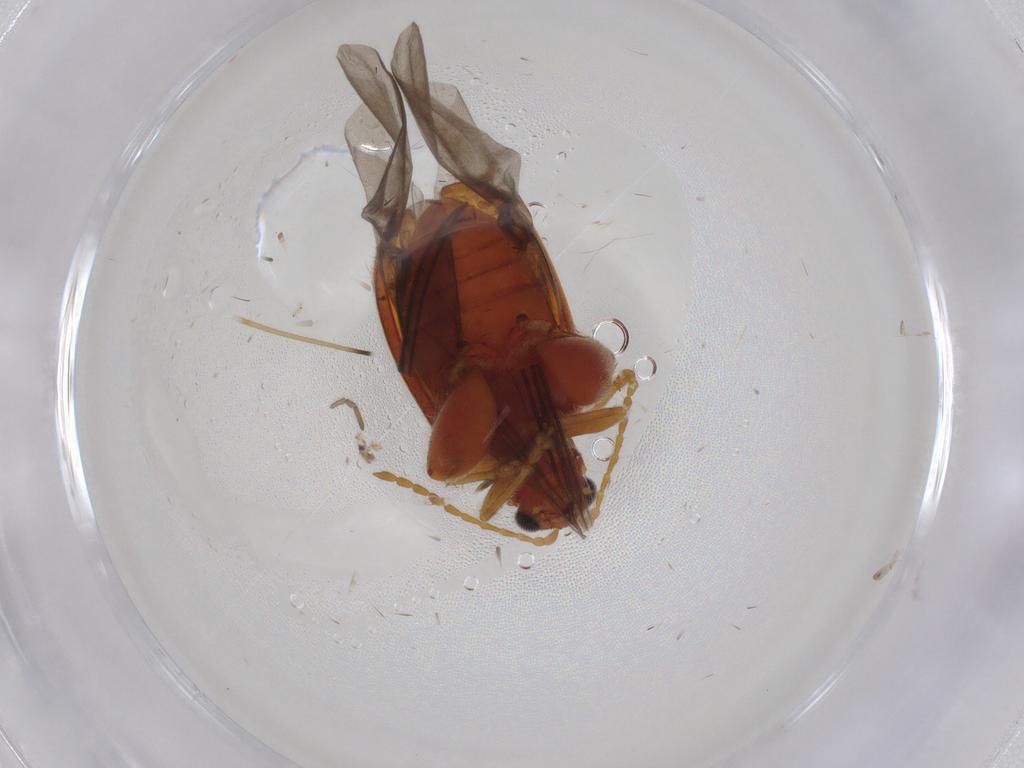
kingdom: Animalia
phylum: Arthropoda
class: Insecta
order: Coleoptera
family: Chrysomelidae
